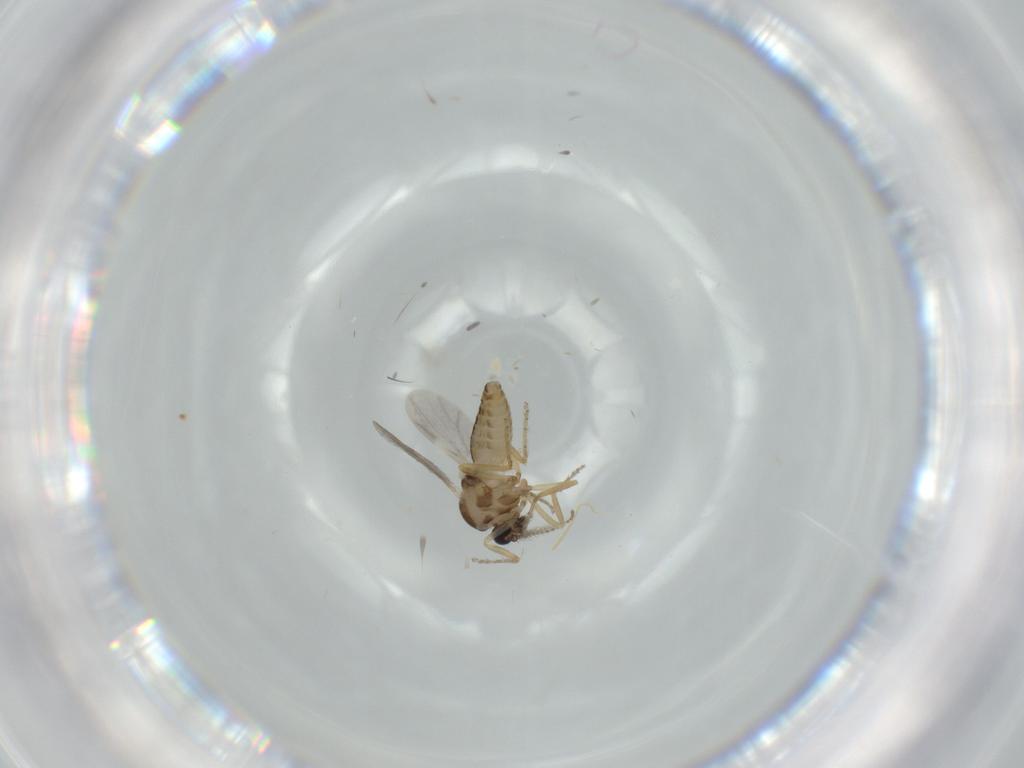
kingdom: Animalia
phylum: Arthropoda
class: Insecta
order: Diptera
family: Ceratopogonidae
